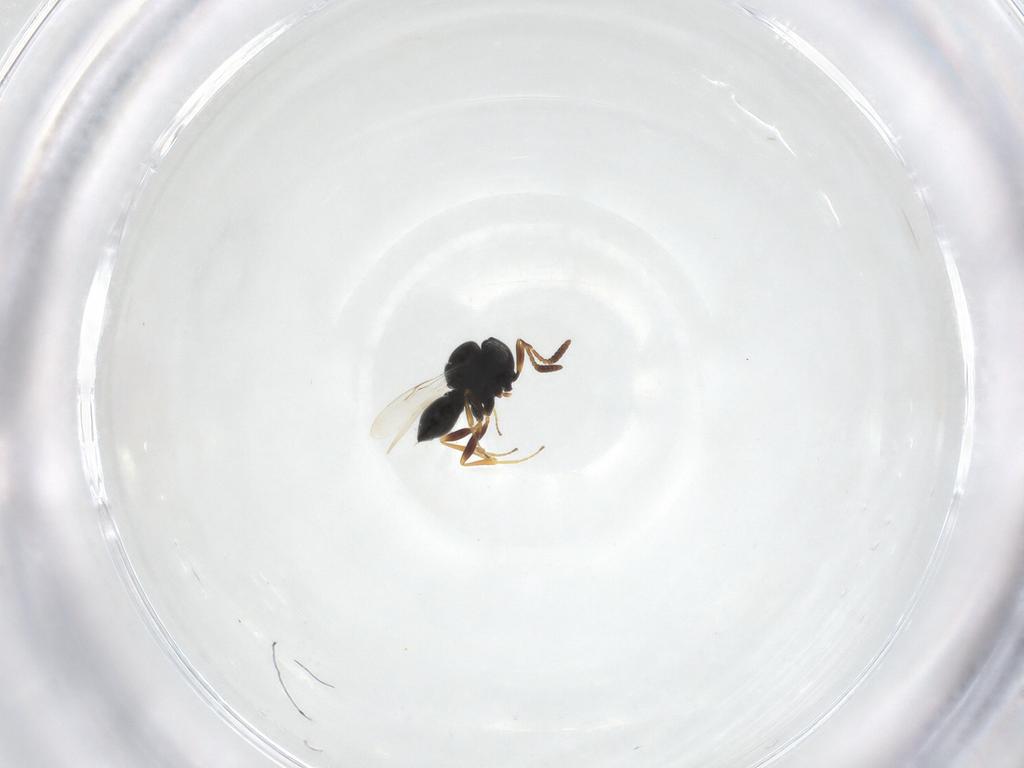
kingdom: Animalia
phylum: Arthropoda
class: Insecta
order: Hymenoptera
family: Scelionidae
